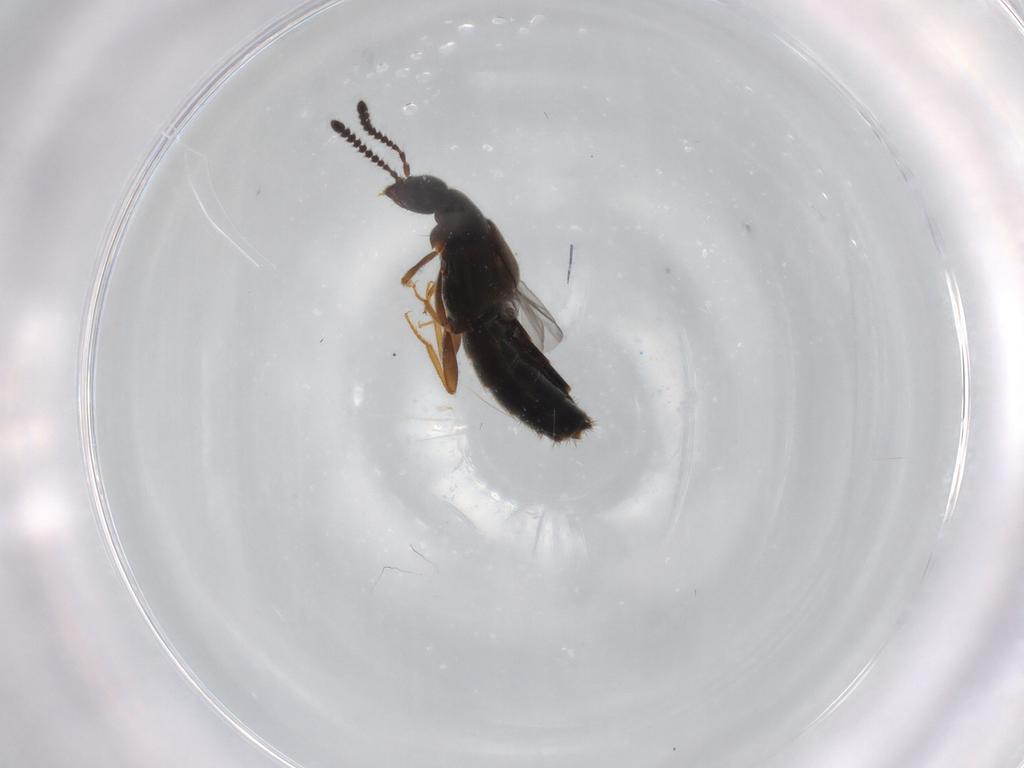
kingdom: Animalia
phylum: Arthropoda
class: Insecta
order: Coleoptera
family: Staphylinidae
